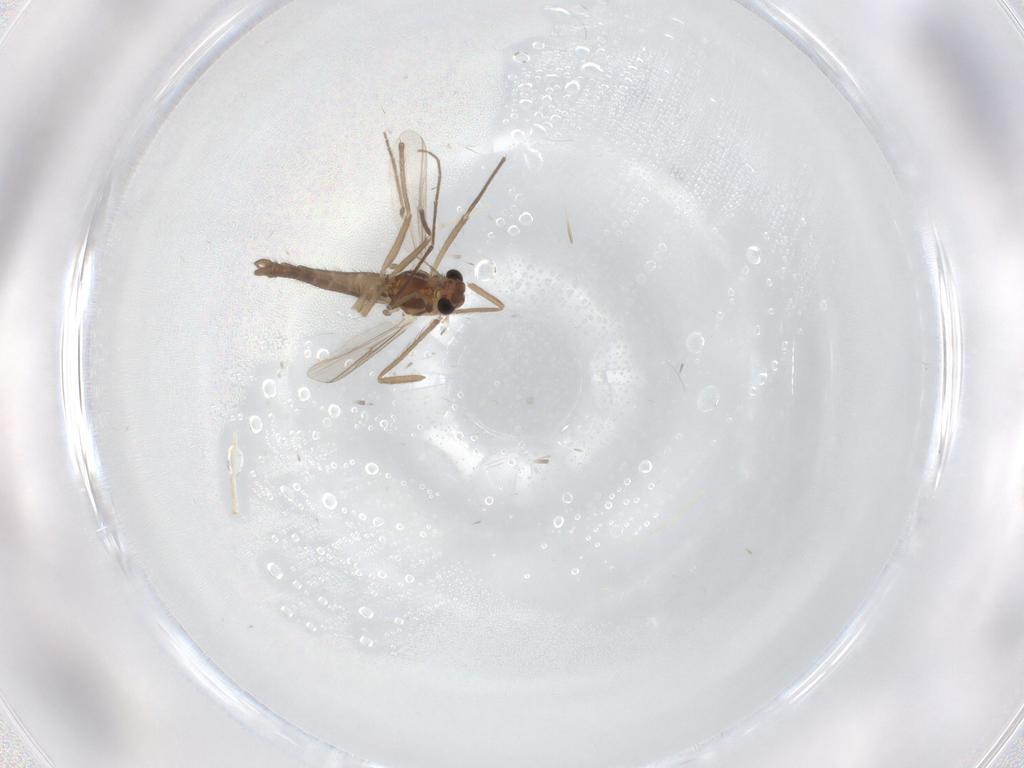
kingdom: Animalia
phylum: Arthropoda
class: Insecta
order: Diptera
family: Chironomidae
